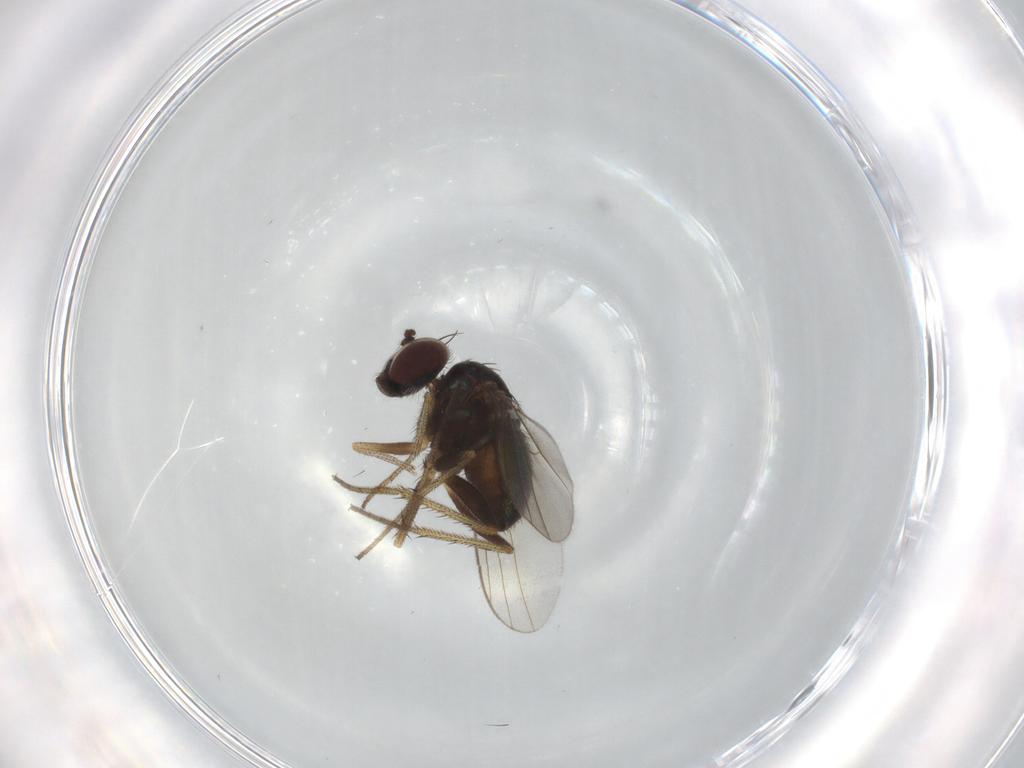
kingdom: Animalia
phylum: Arthropoda
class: Insecta
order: Diptera
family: Dolichopodidae
